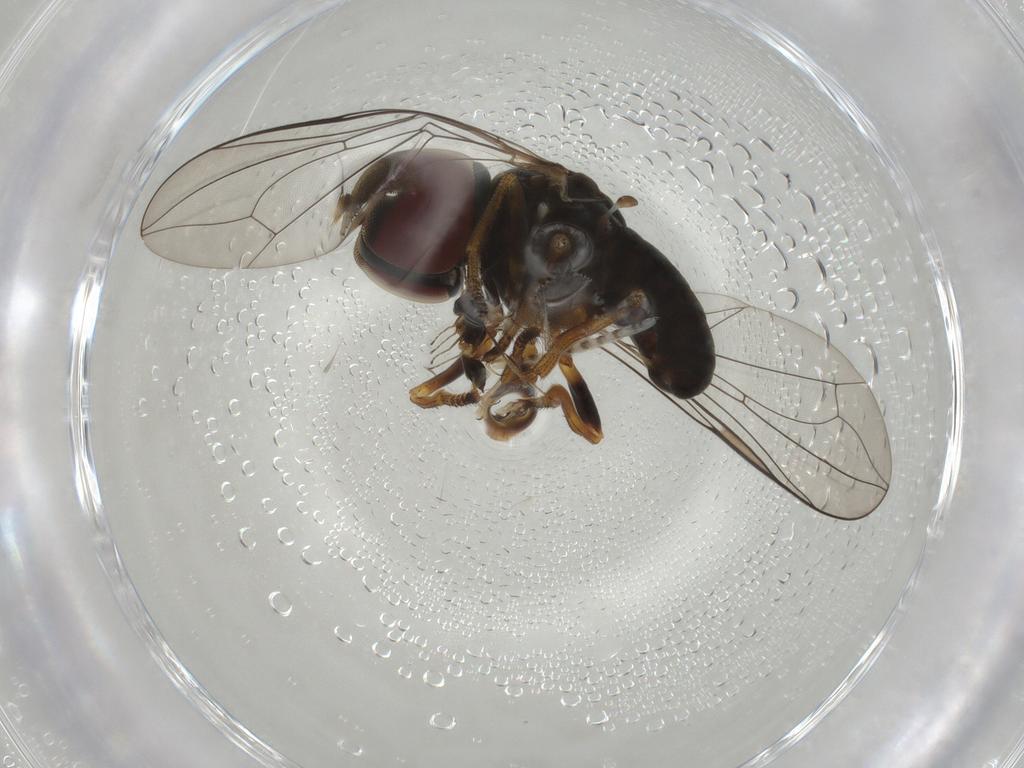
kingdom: Animalia
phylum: Arthropoda
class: Insecta
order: Diptera
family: Pipunculidae
